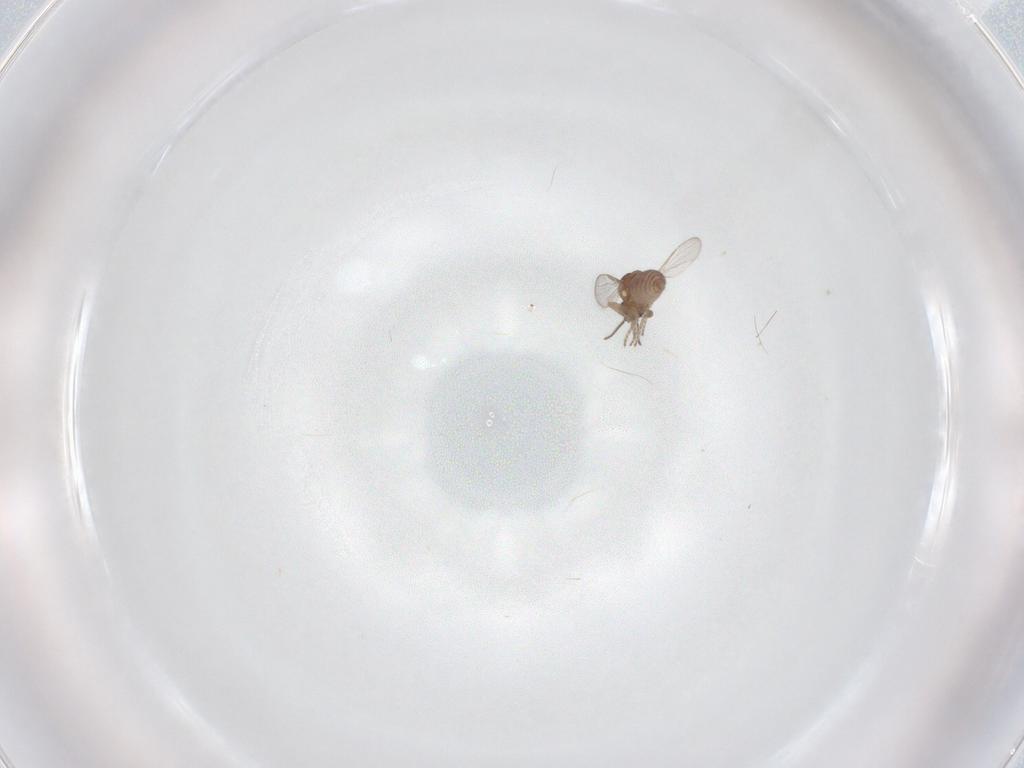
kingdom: Animalia
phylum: Arthropoda
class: Insecta
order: Diptera
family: Ceratopogonidae
